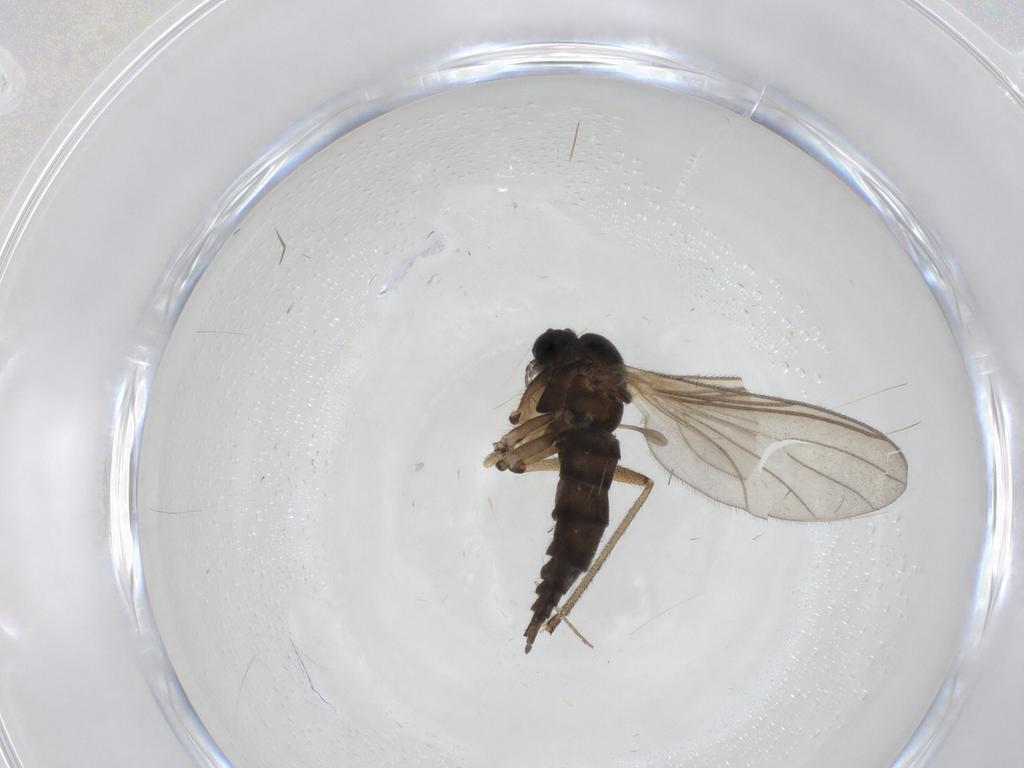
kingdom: Animalia
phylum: Arthropoda
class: Insecta
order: Diptera
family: Sciaridae
